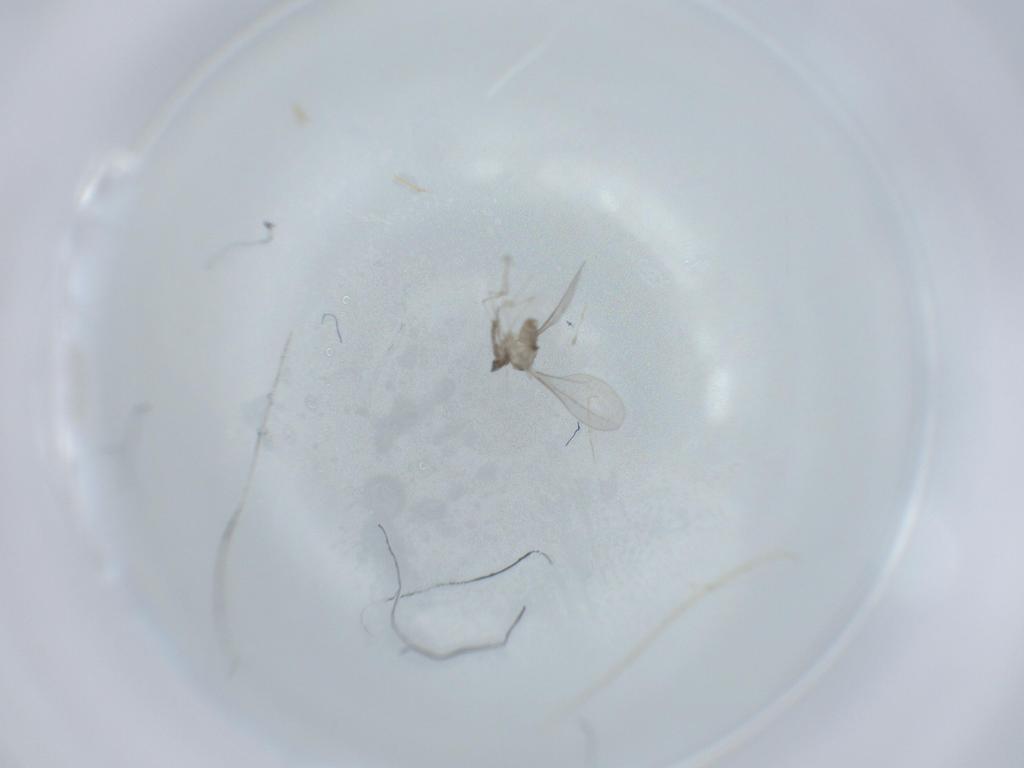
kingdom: Animalia
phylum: Arthropoda
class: Insecta
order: Diptera
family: Cecidomyiidae
